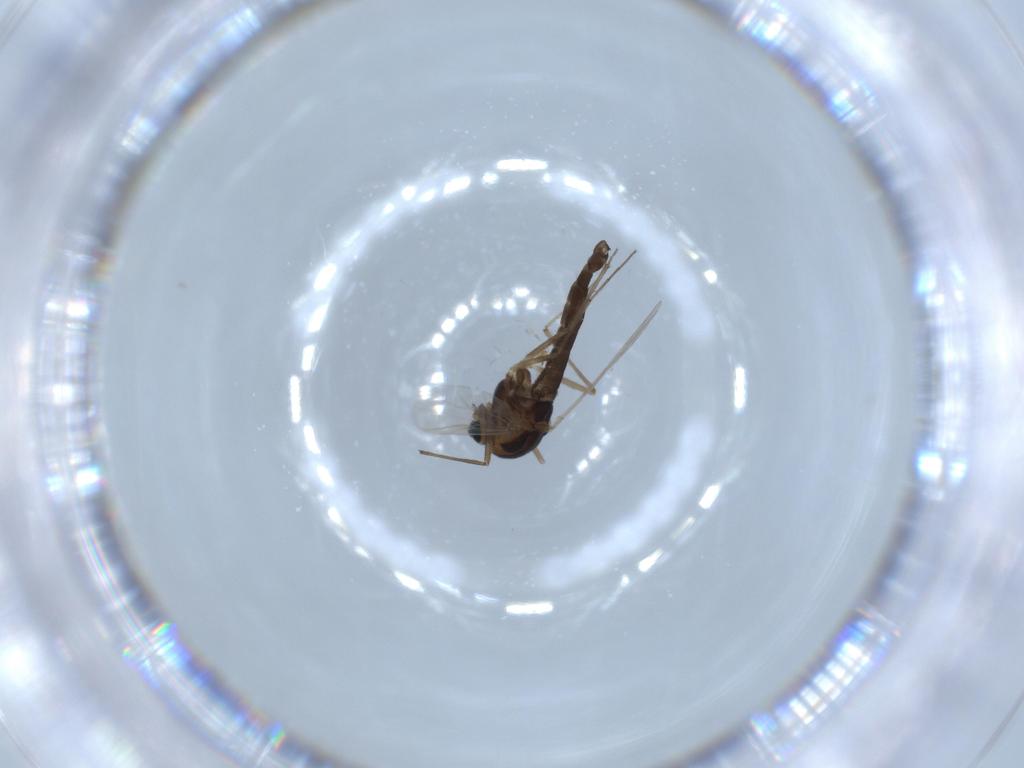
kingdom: Animalia
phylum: Arthropoda
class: Insecta
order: Diptera
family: Chironomidae
